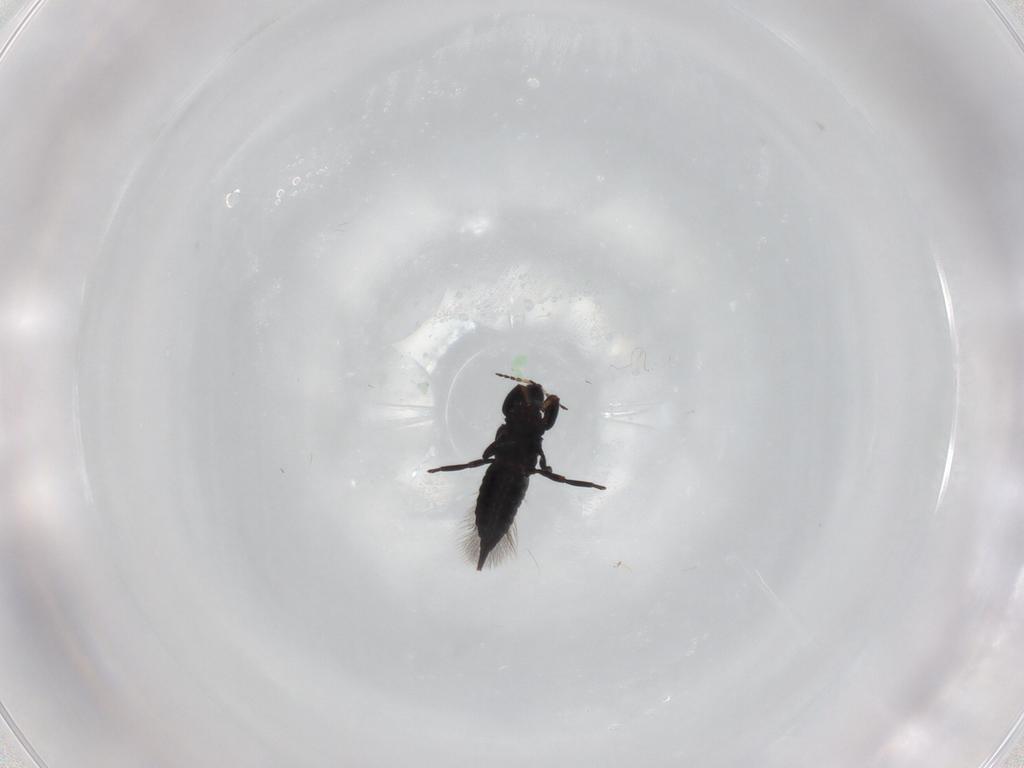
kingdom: Animalia
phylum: Arthropoda
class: Insecta
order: Thysanoptera
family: Phlaeothripidae
